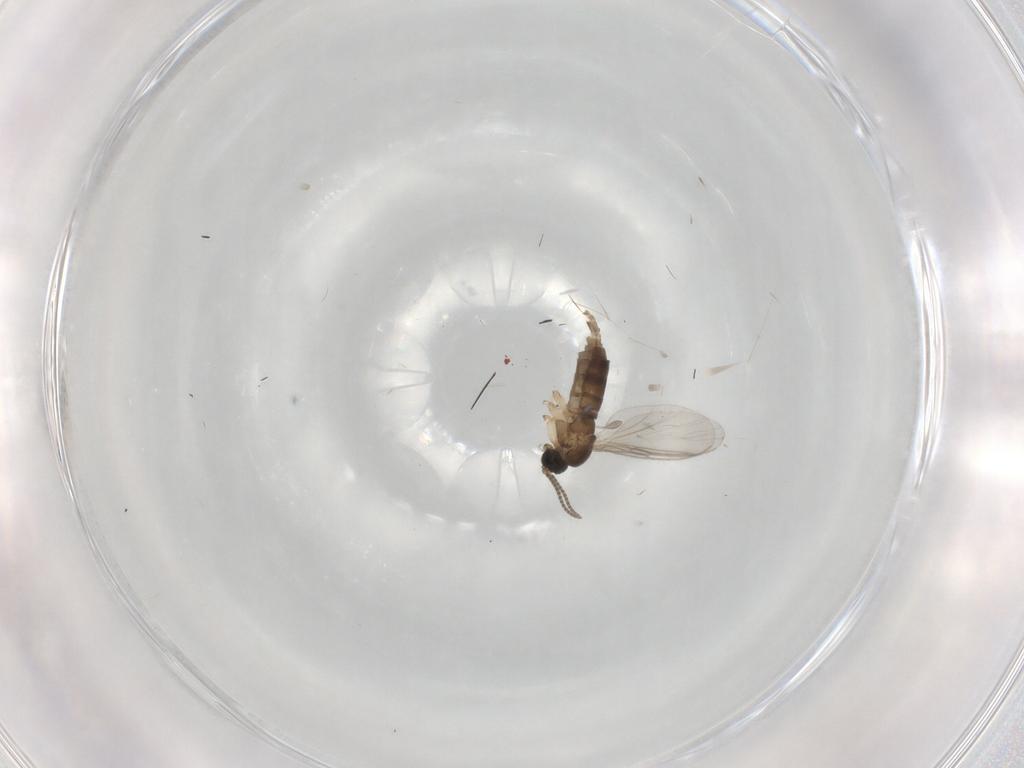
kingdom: Animalia
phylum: Arthropoda
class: Insecta
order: Diptera
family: Sciaridae
